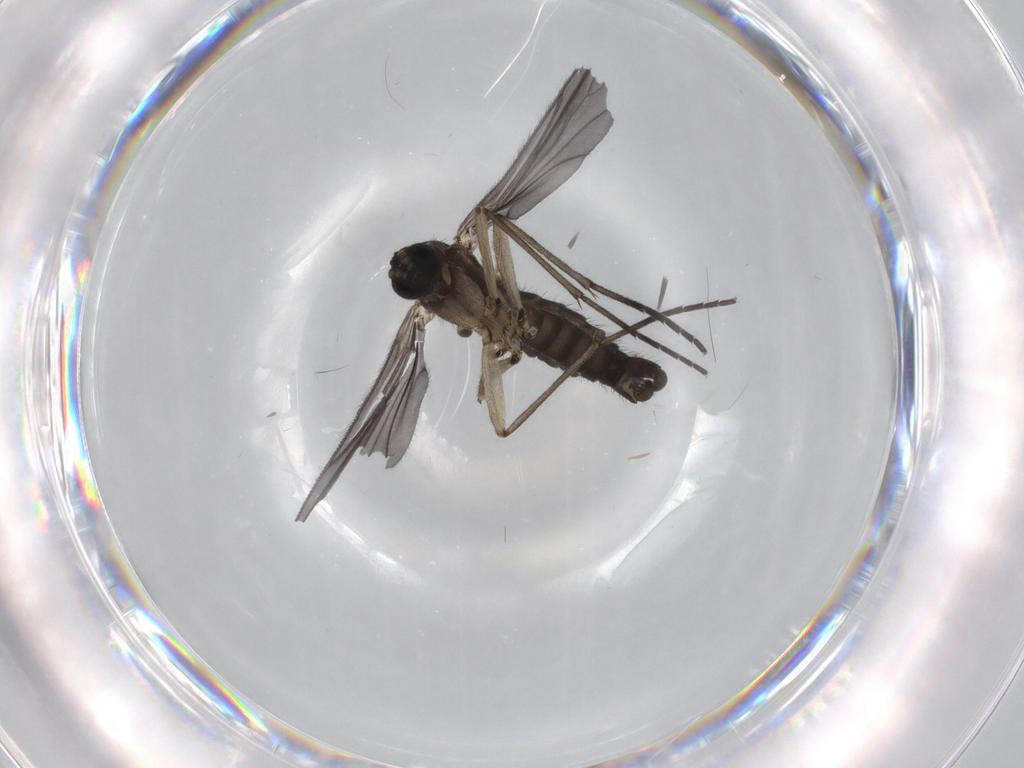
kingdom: Animalia
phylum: Arthropoda
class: Insecta
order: Diptera
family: Sciaridae
